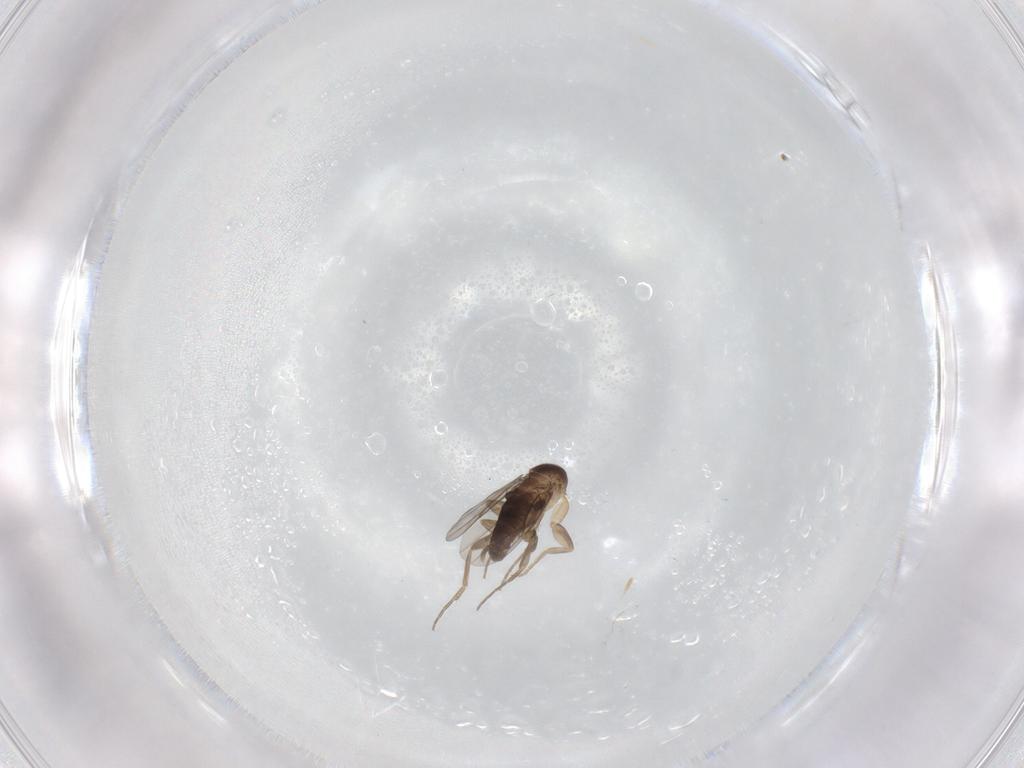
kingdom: Animalia
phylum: Arthropoda
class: Insecta
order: Diptera
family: Phoridae
